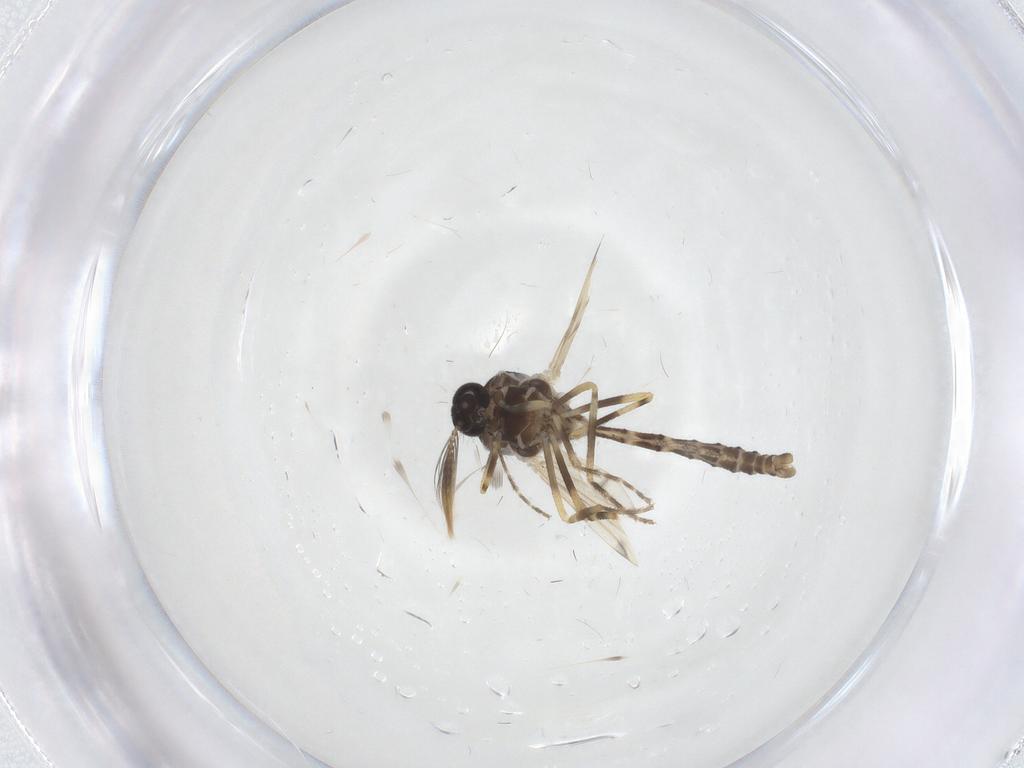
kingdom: Animalia
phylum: Arthropoda
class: Insecta
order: Diptera
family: Ceratopogonidae
